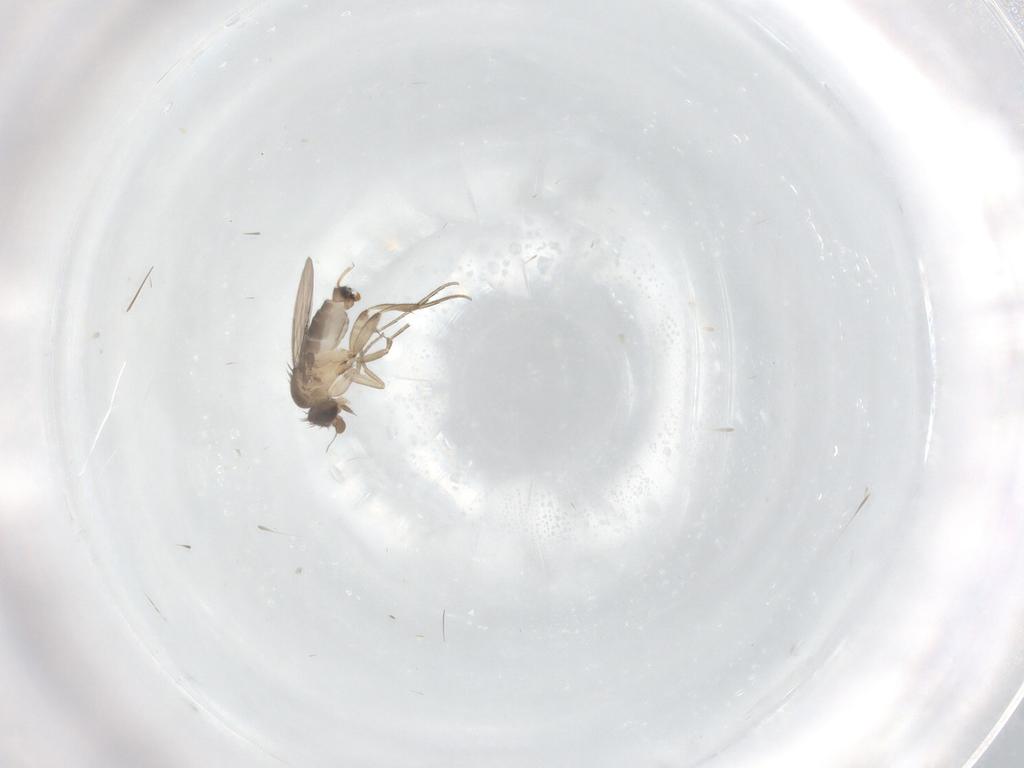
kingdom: Animalia
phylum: Arthropoda
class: Insecta
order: Diptera
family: Phoridae
